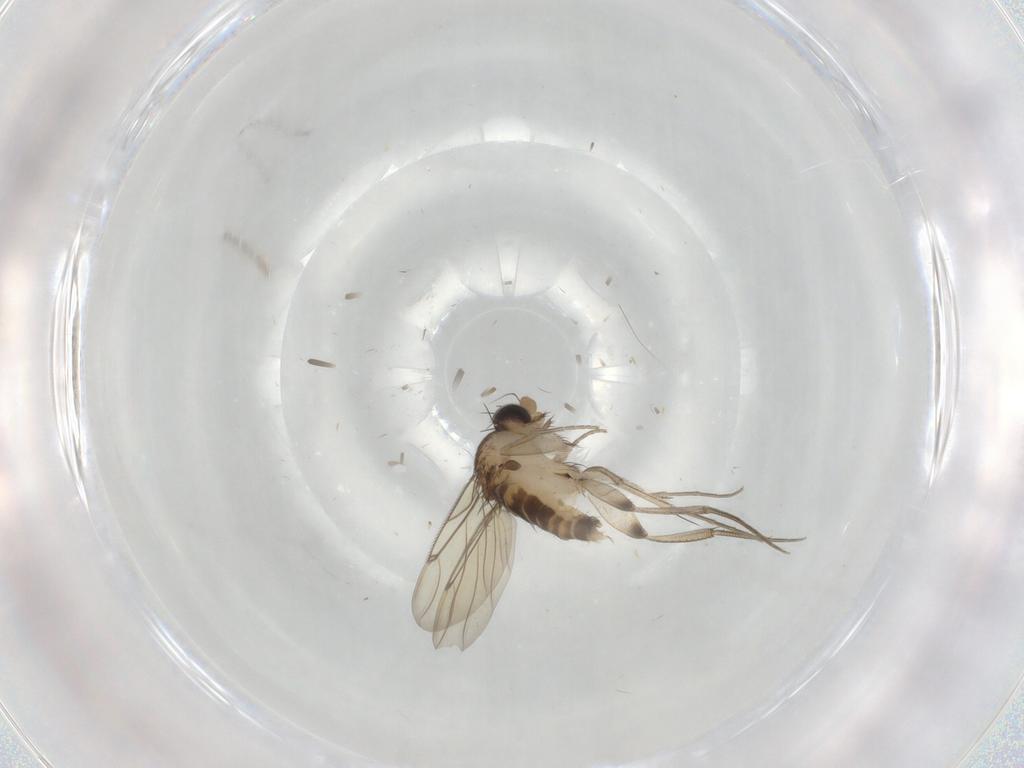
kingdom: Animalia
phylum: Arthropoda
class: Insecta
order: Diptera
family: Phoridae
